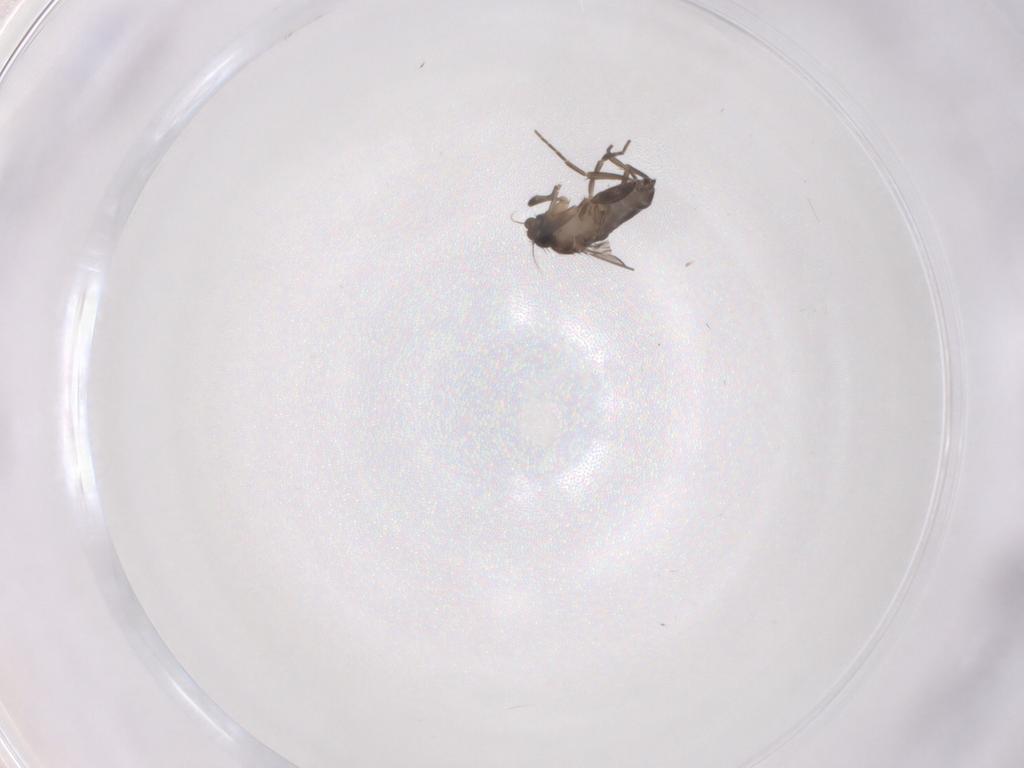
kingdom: Animalia
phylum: Arthropoda
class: Insecta
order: Diptera
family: Phoridae
